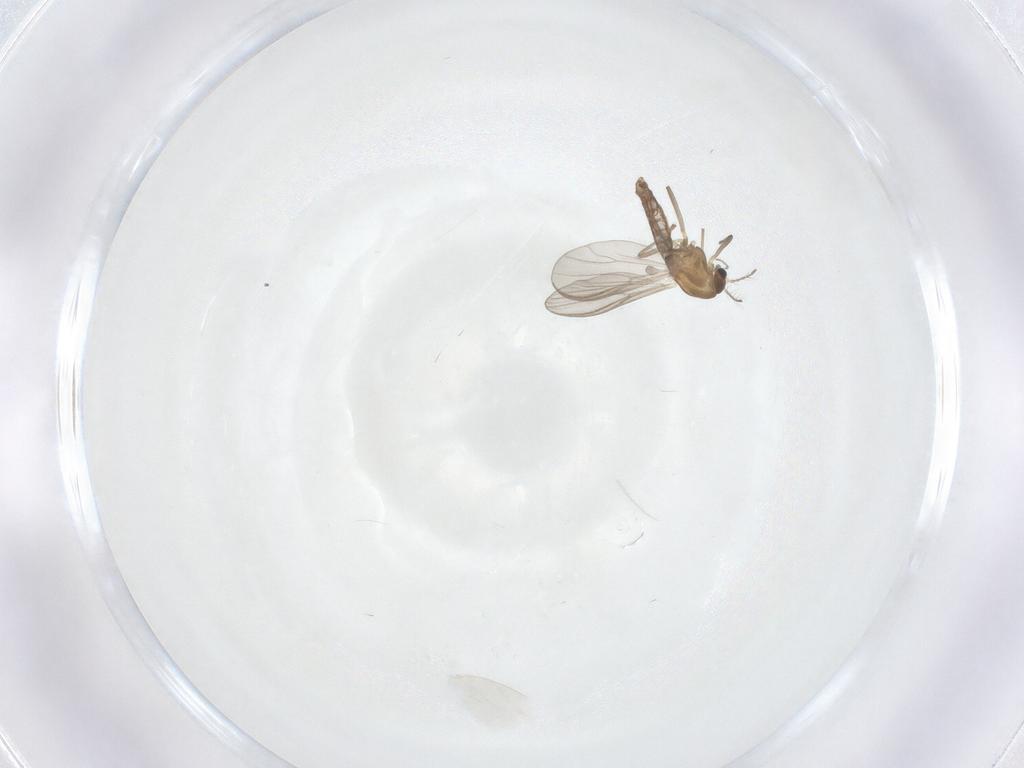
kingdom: Animalia
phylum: Arthropoda
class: Insecta
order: Diptera
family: Chironomidae
